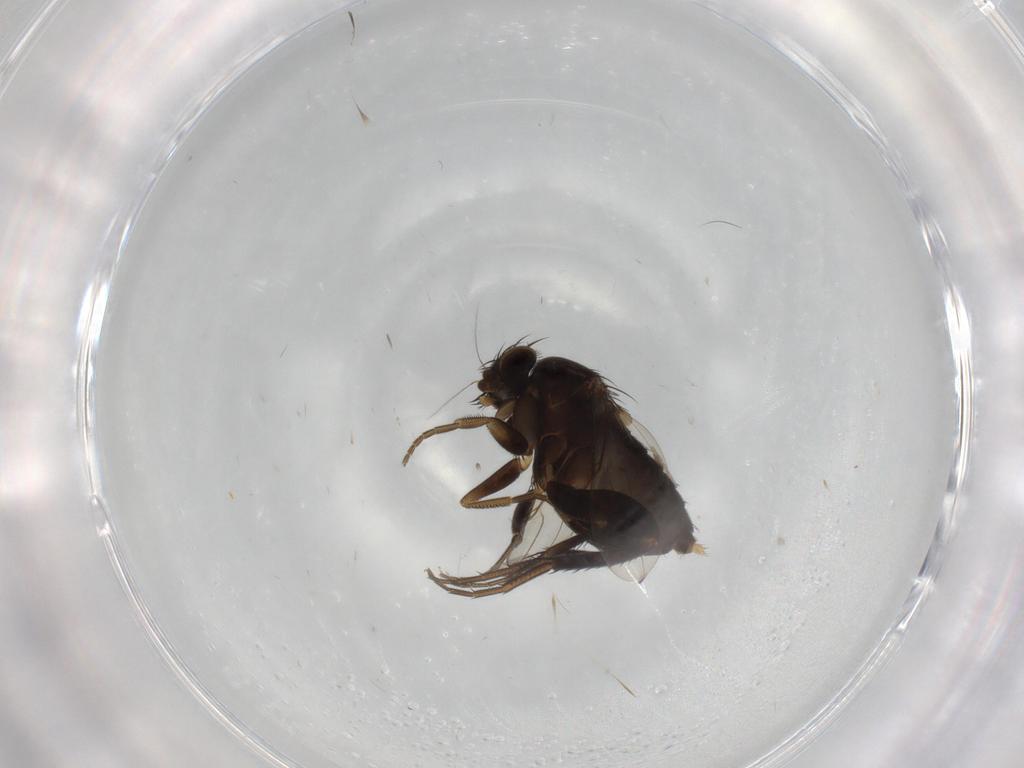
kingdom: Animalia
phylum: Arthropoda
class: Insecta
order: Diptera
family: Phoridae
